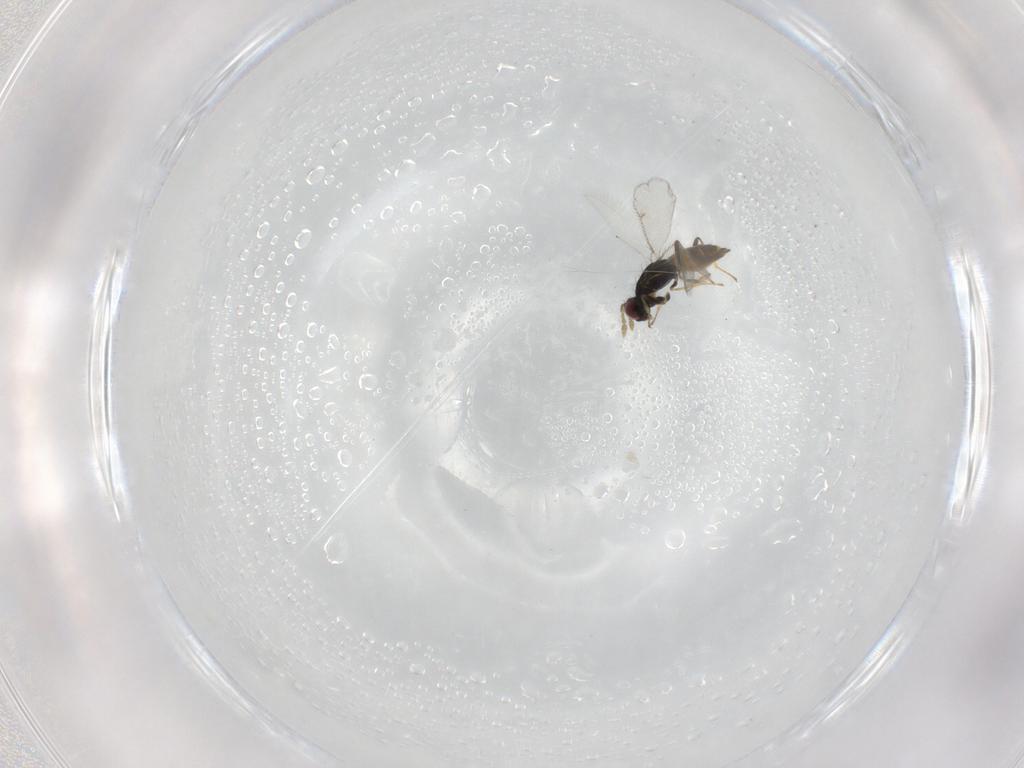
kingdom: Animalia
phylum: Arthropoda
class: Insecta
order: Hymenoptera
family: Eulophidae
